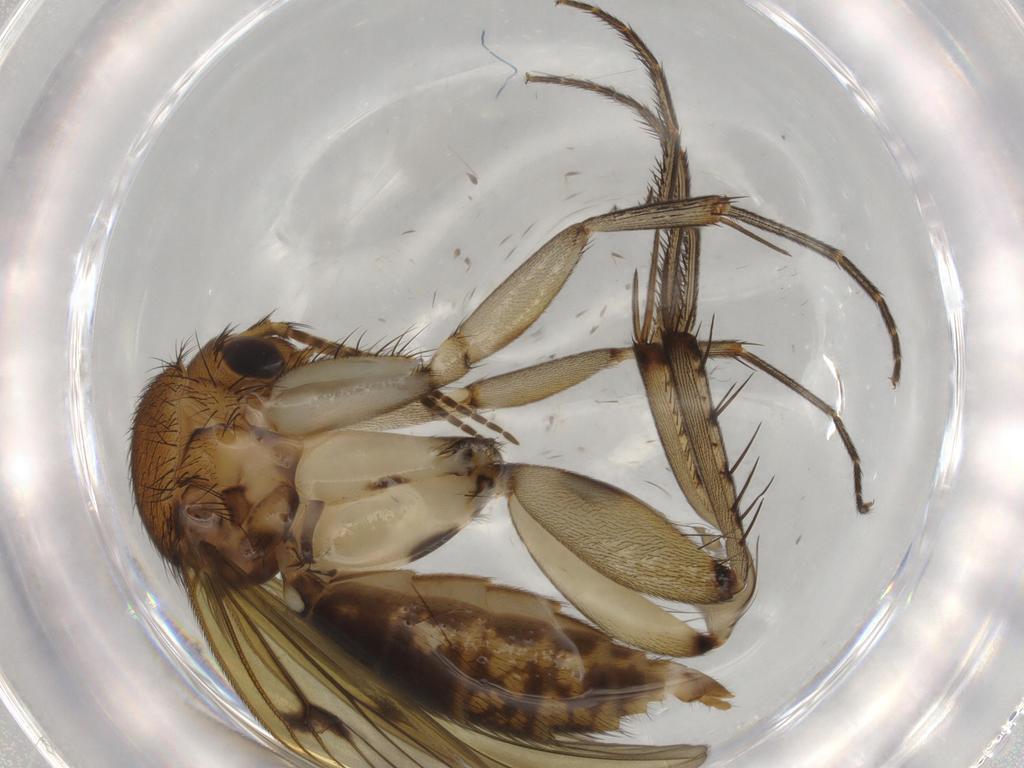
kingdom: Animalia
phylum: Arthropoda
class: Insecta
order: Diptera
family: Mycetophilidae
